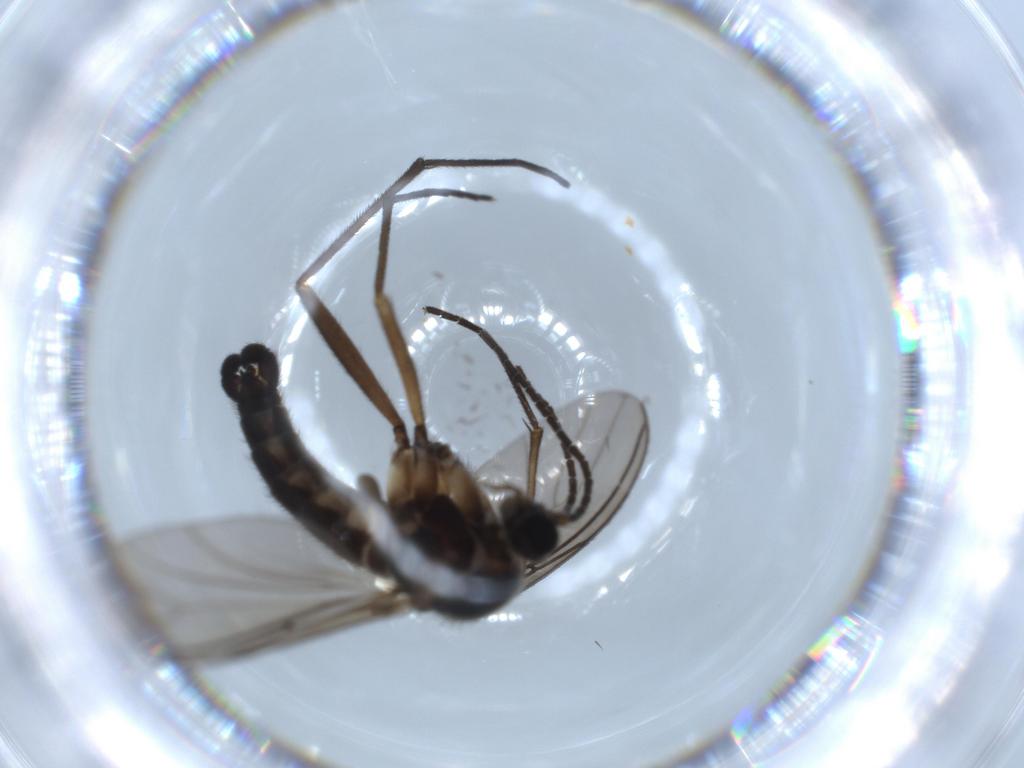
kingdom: Animalia
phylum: Arthropoda
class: Insecta
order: Diptera
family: Sciaridae
